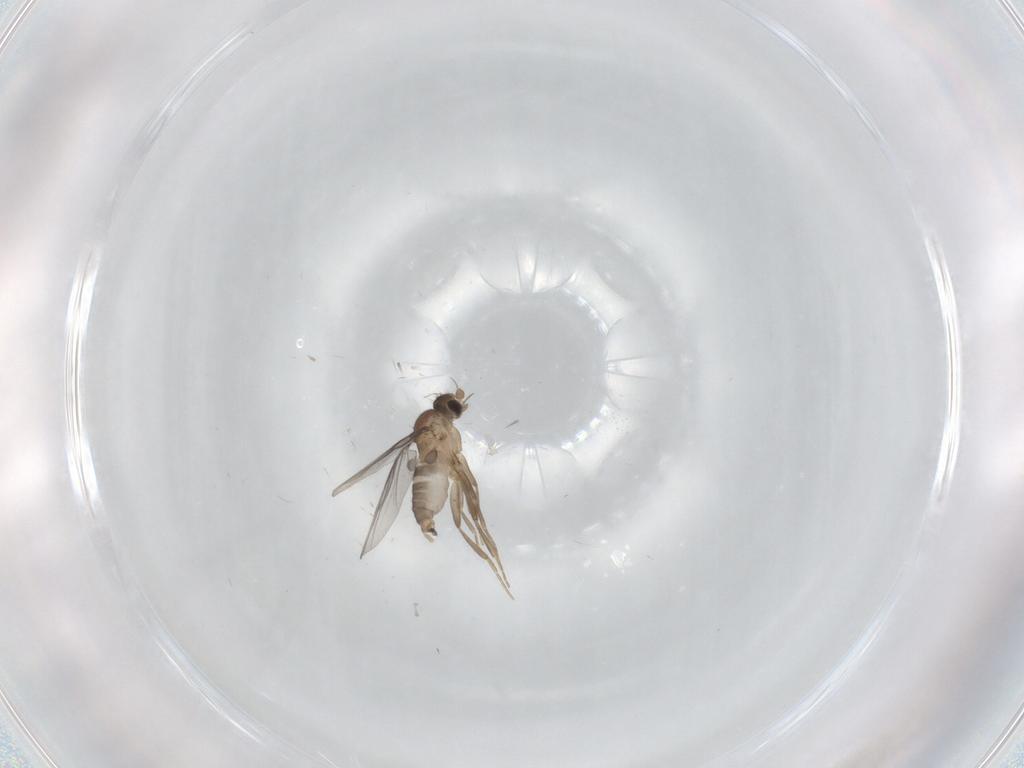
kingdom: Animalia
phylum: Arthropoda
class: Insecta
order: Diptera
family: Chironomidae
